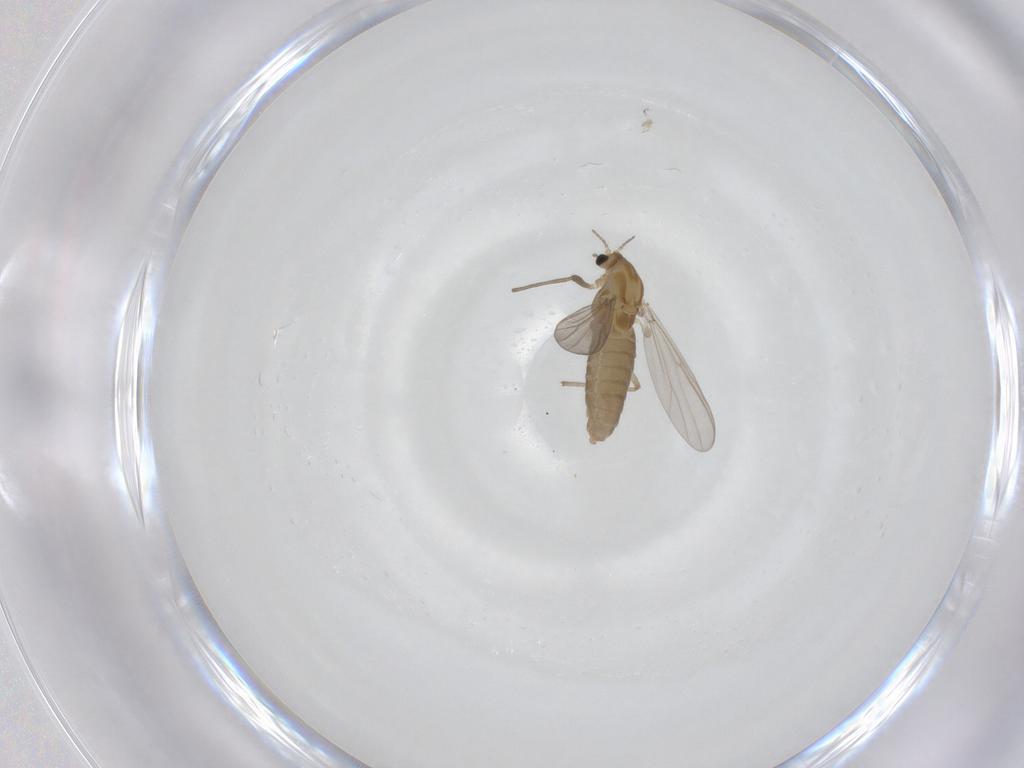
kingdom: Animalia
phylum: Arthropoda
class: Insecta
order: Diptera
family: Chironomidae
